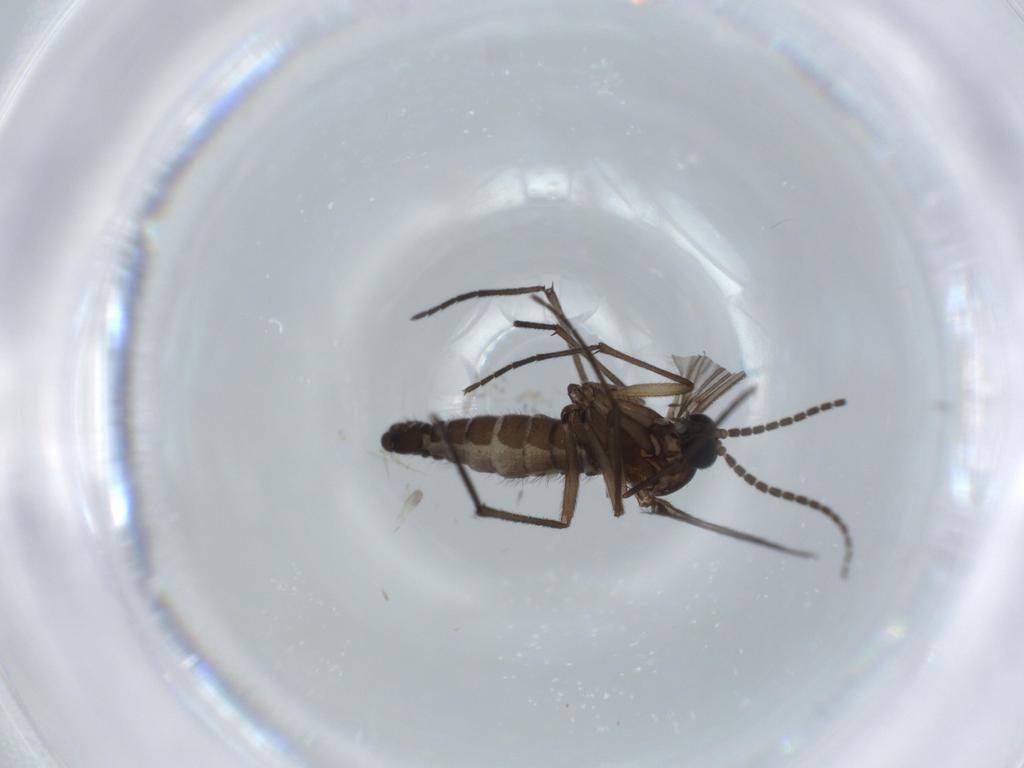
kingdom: Animalia
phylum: Arthropoda
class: Insecta
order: Diptera
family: Sciaridae
